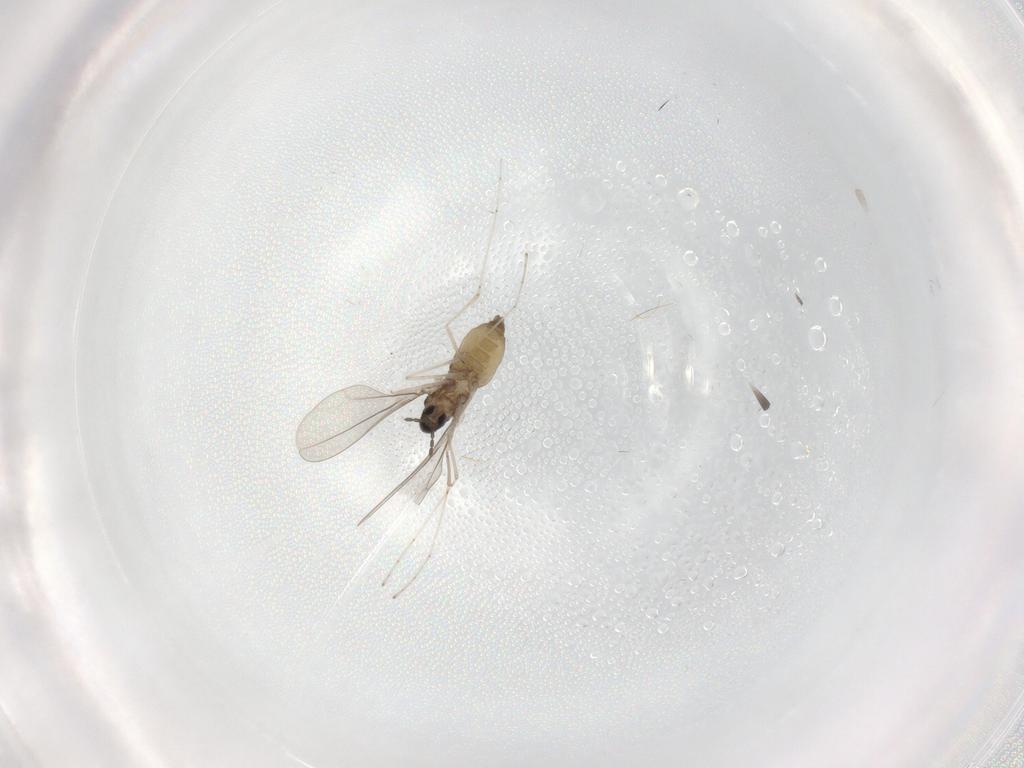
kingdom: Animalia
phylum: Arthropoda
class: Insecta
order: Diptera
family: Cecidomyiidae
